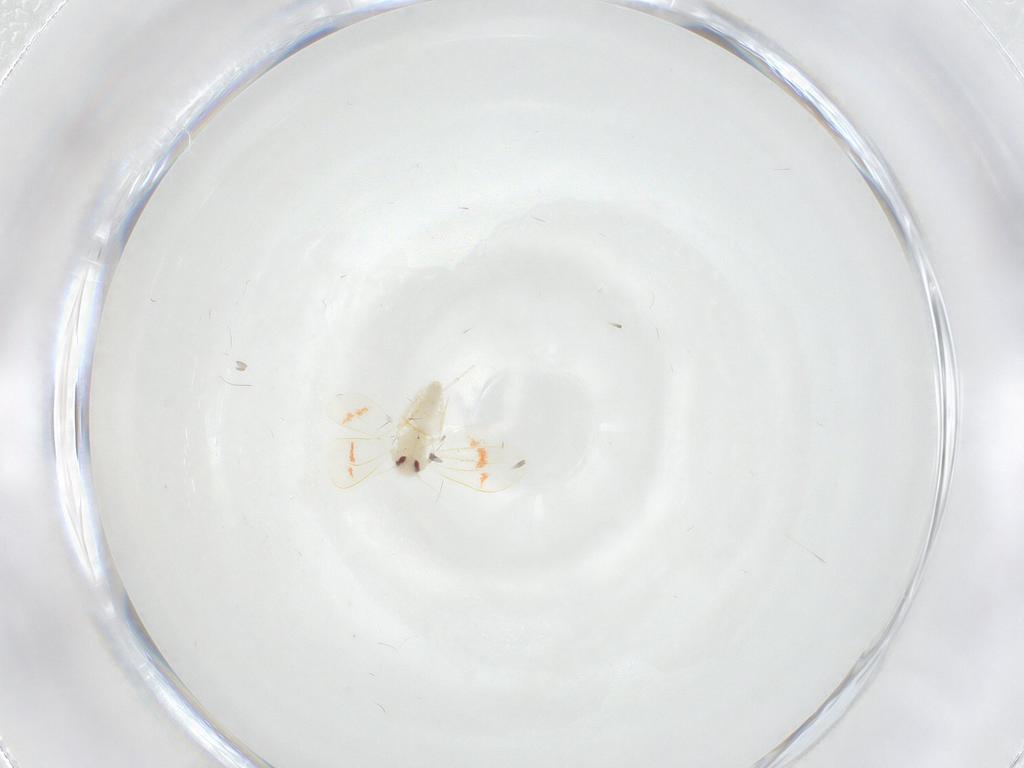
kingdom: Animalia
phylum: Arthropoda
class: Insecta
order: Hemiptera
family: Aleyrodidae
